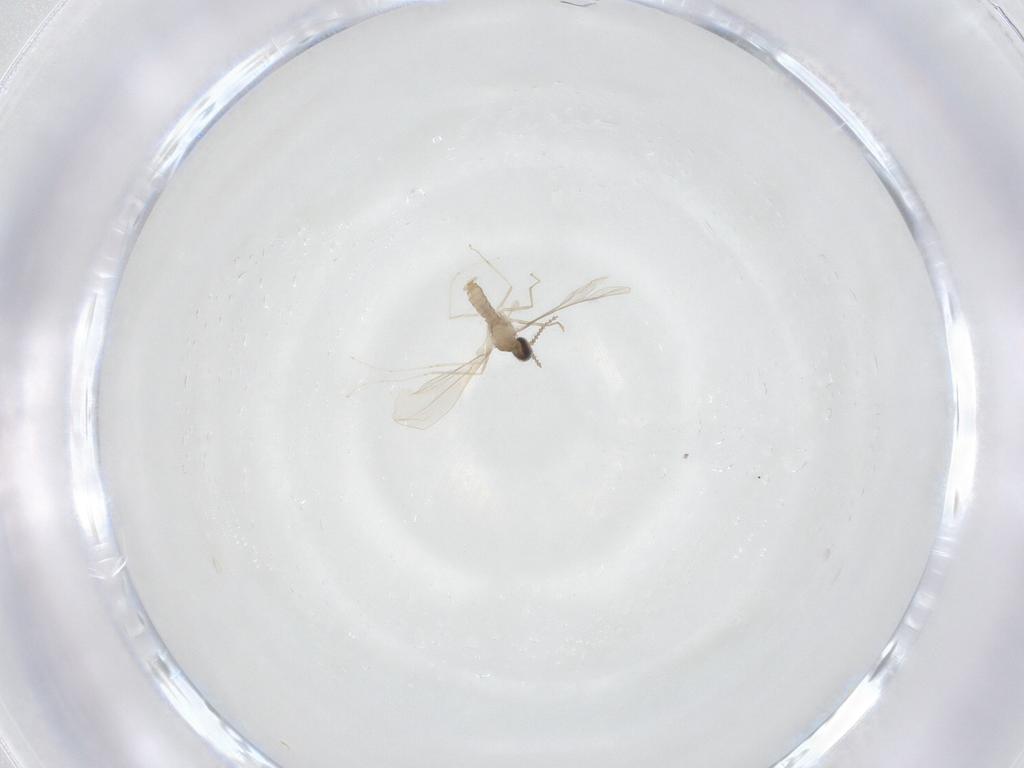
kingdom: Animalia
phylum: Arthropoda
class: Insecta
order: Diptera
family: Cecidomyiidae
